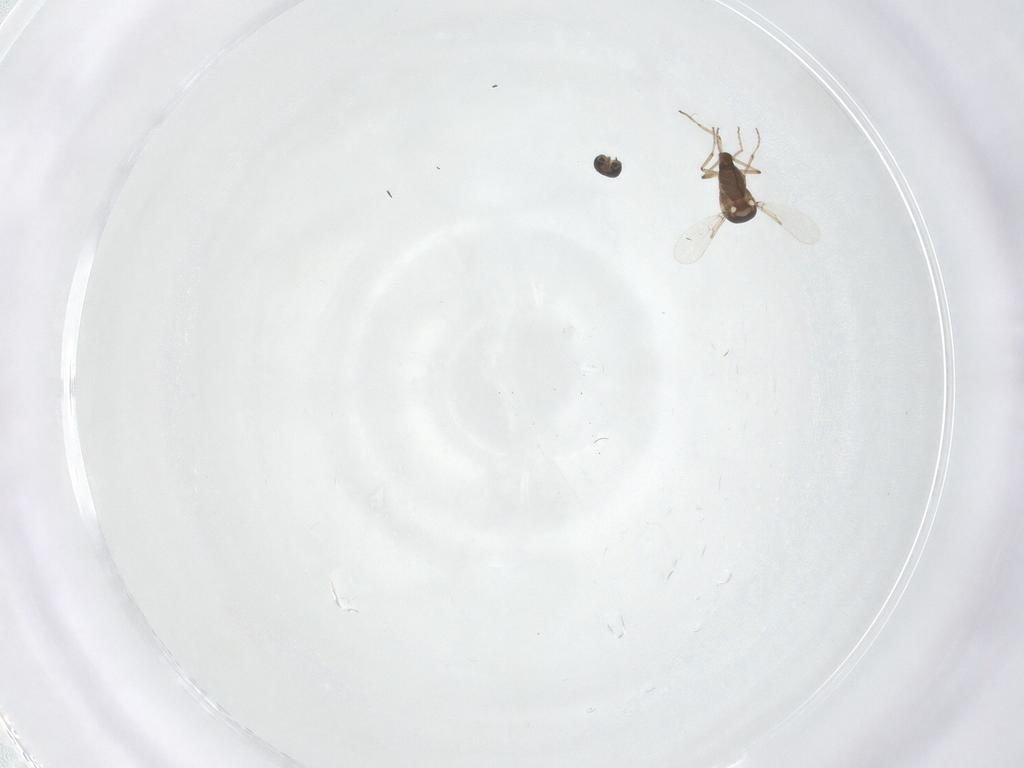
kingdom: Animalia
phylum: Arthropoda
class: Insecta
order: Diptera
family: Ceratopogonidae
